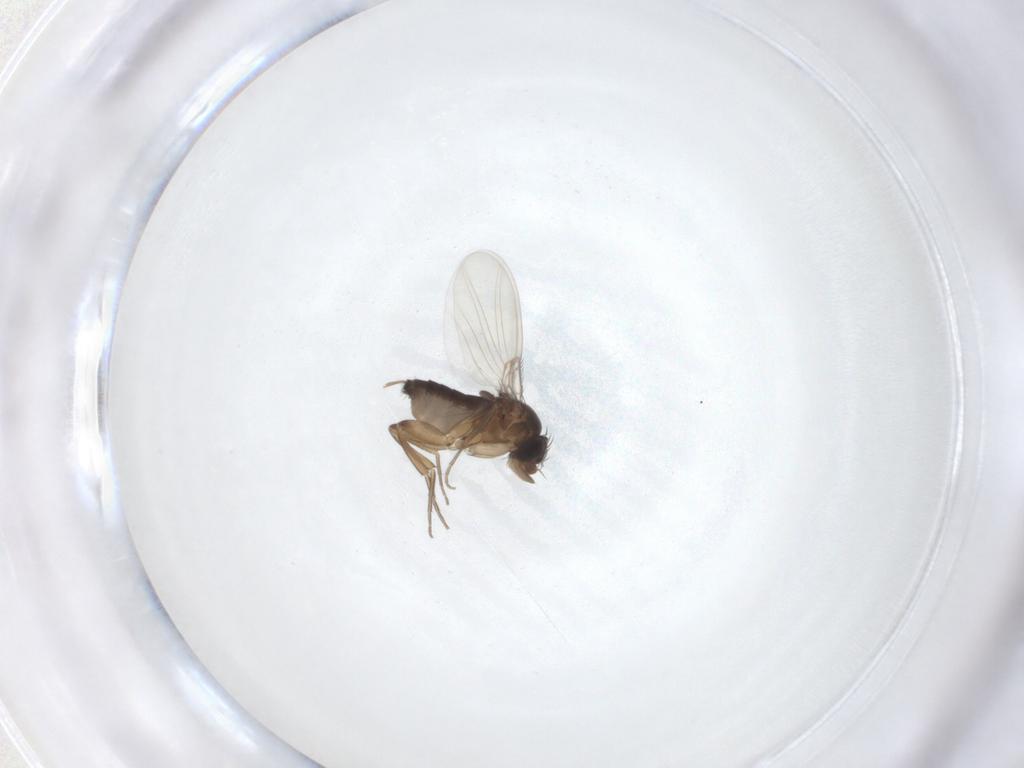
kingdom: Animalia
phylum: Arthropoda
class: Insecta
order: Diptera
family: Phoridae
